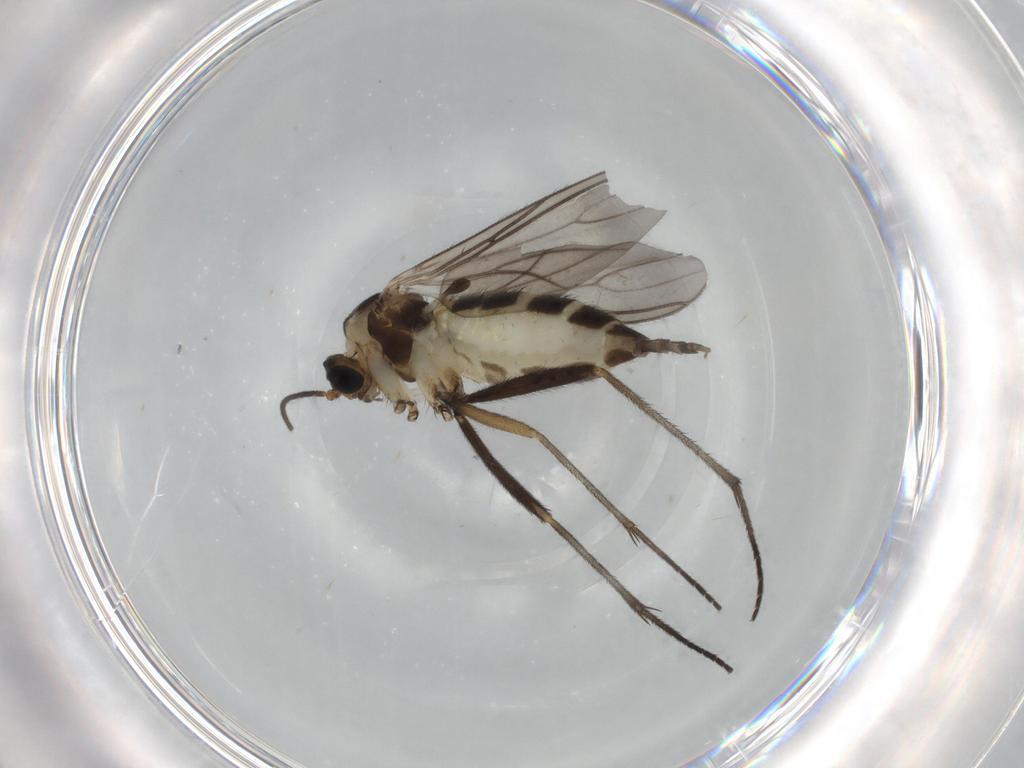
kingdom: Animalia
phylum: Arthropoda
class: Insecta
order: Diptera
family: Sciaridae
